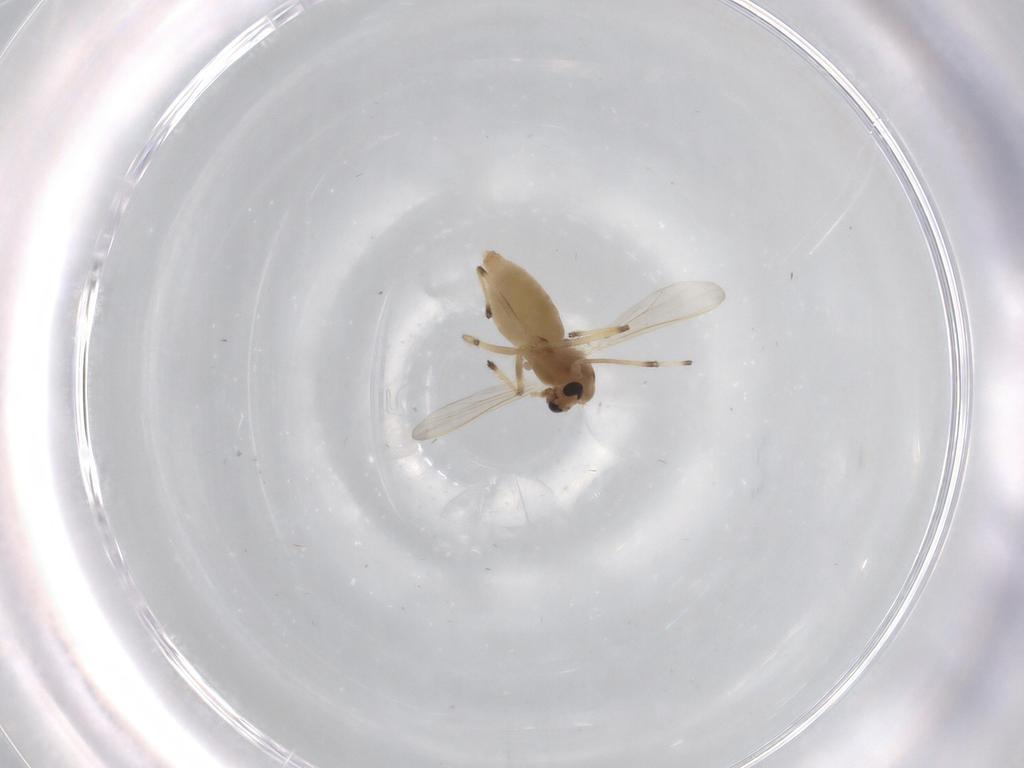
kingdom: Animalia
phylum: Arthropoda
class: Insecta
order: Diptera
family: Chironomidae
